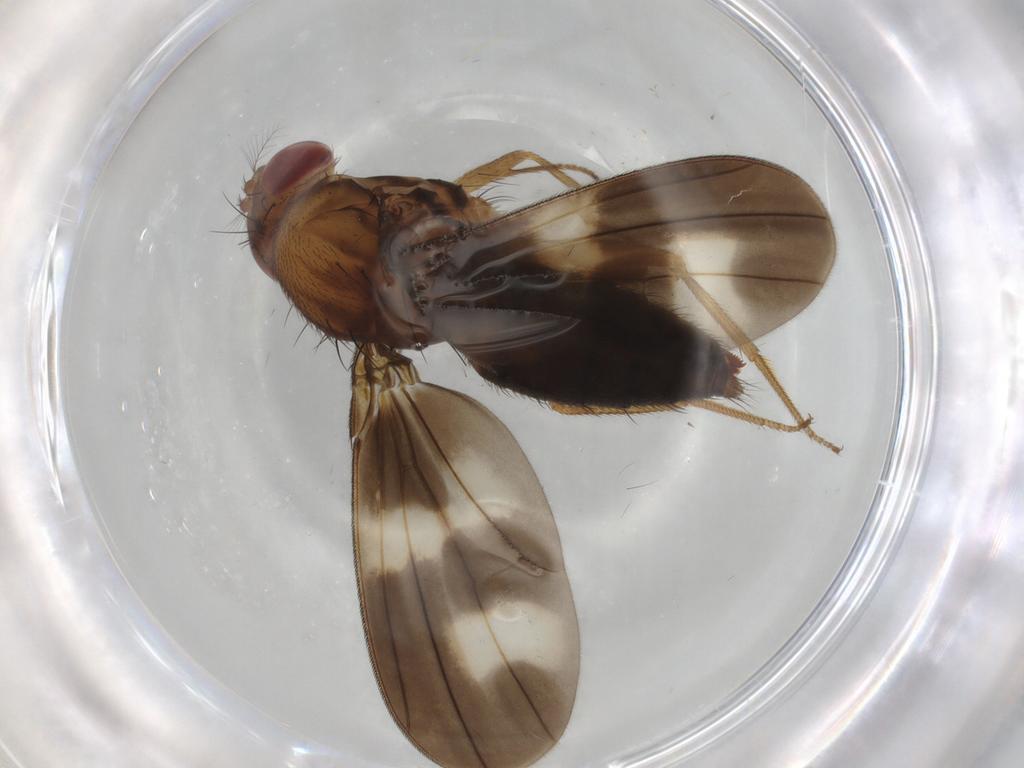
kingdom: Animalia
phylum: Arthropoda
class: Insecta
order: Diptera
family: Drosophilidae
